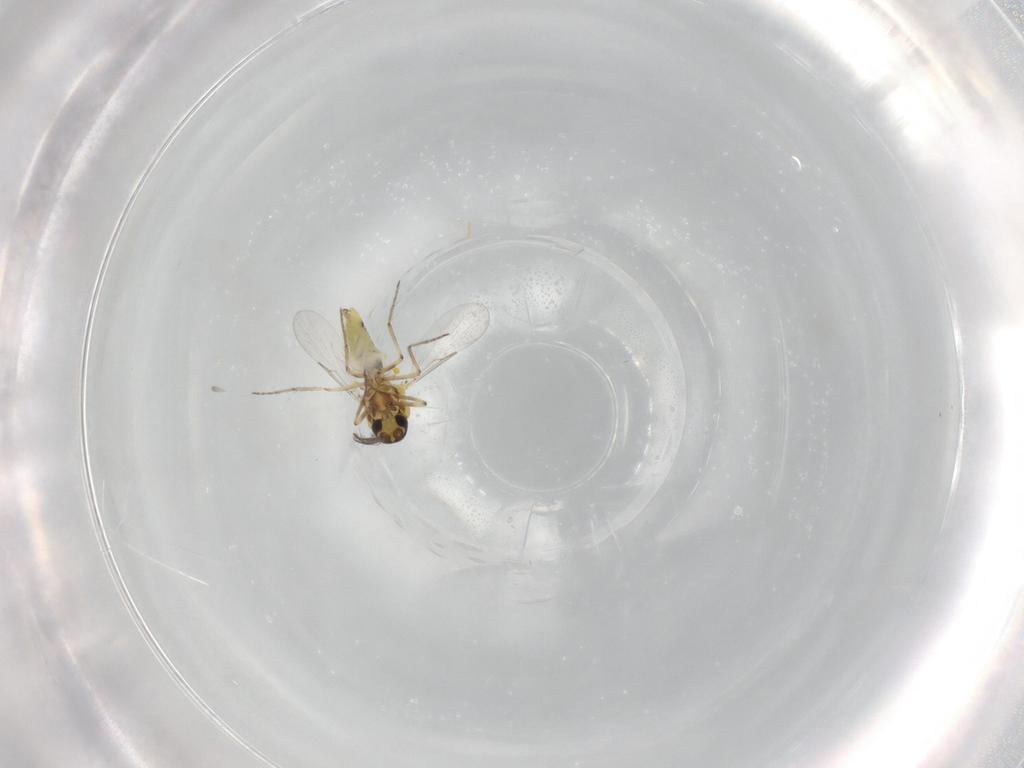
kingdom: Animalia
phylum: Arthropoda
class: Insecta
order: Diptera
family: Ceratopogonidae
